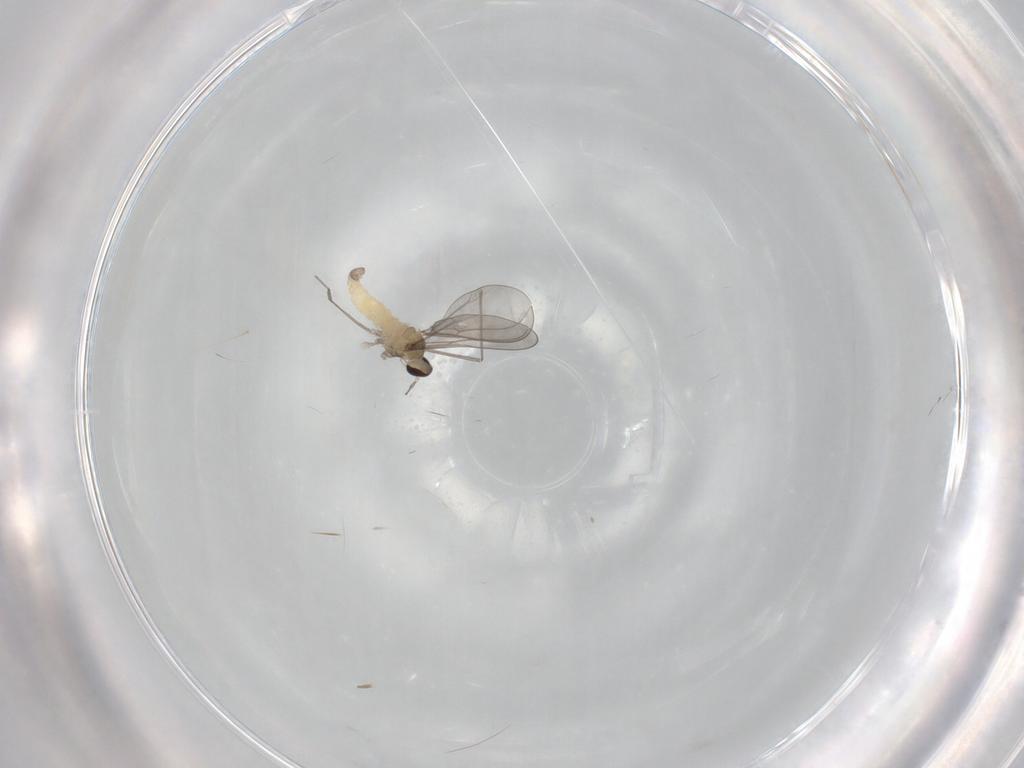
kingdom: Animalia
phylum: Arthropoda
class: Insecta
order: Diptera
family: Cecidomyiidae
